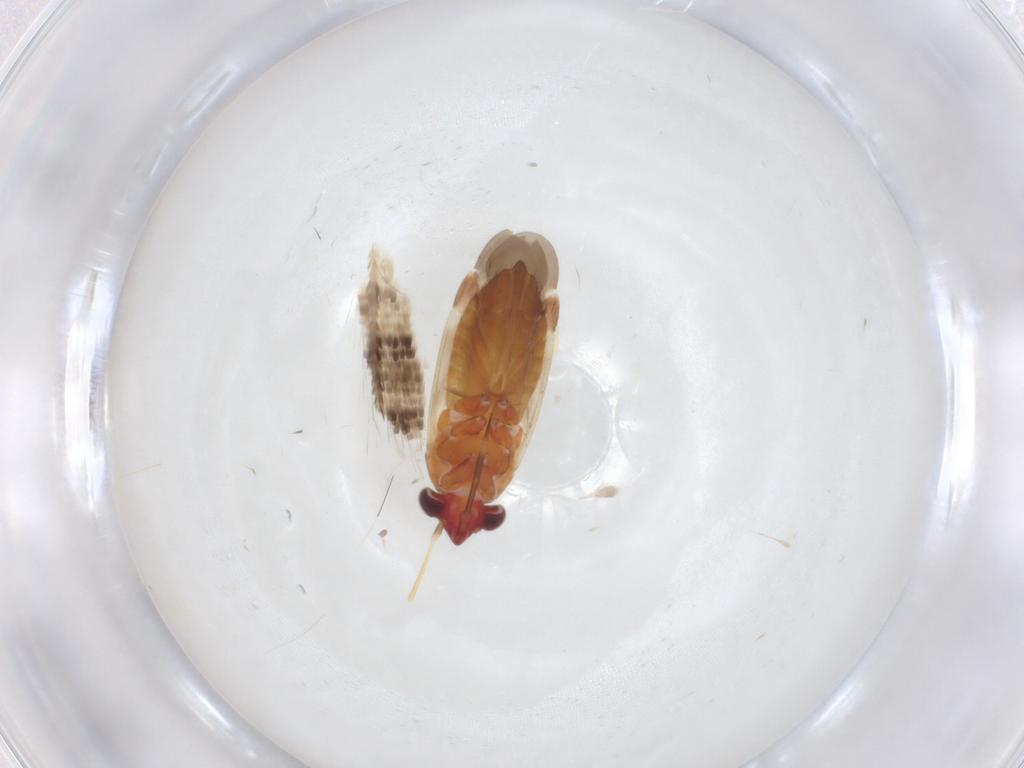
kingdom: Animalia
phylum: Arthropoda
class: Insecta
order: Hemiptera
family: Miridae
